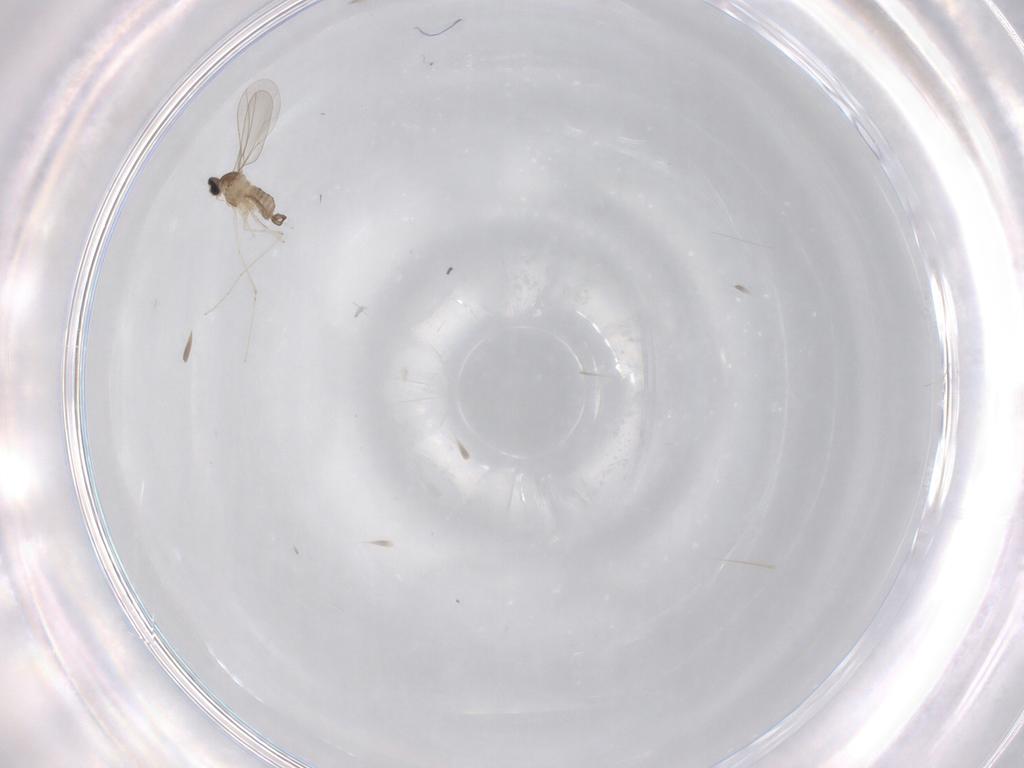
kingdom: Animalia
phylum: Arthropoda
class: Insecta
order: Diptera
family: Cecidomyiidae
